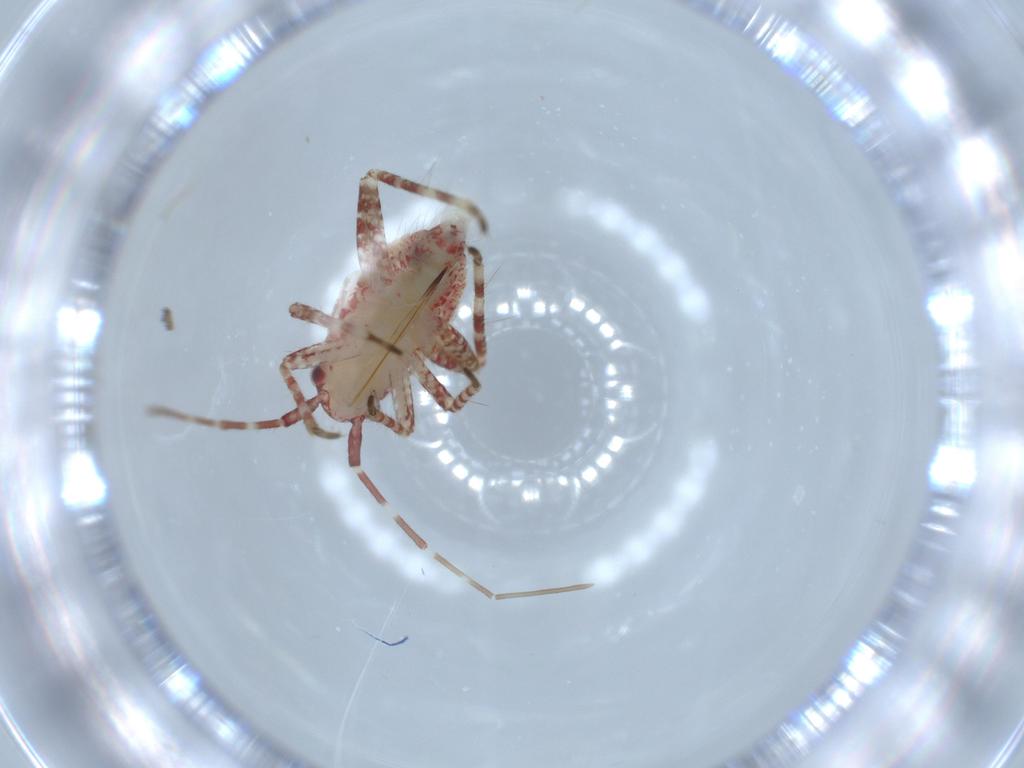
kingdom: Animalia
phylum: Arthropoda
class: Insecta
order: Hemiptera
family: Miridae
